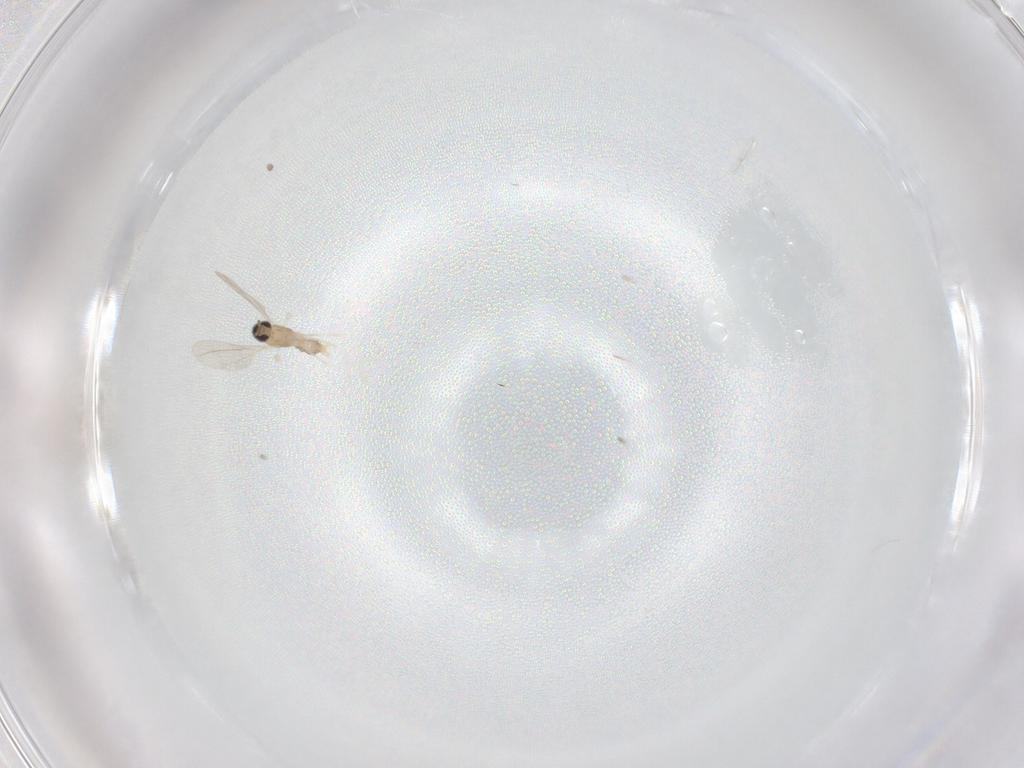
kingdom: Animalia
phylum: Arthropoda
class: Insecta
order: Diptera
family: Cecidomyiidae
